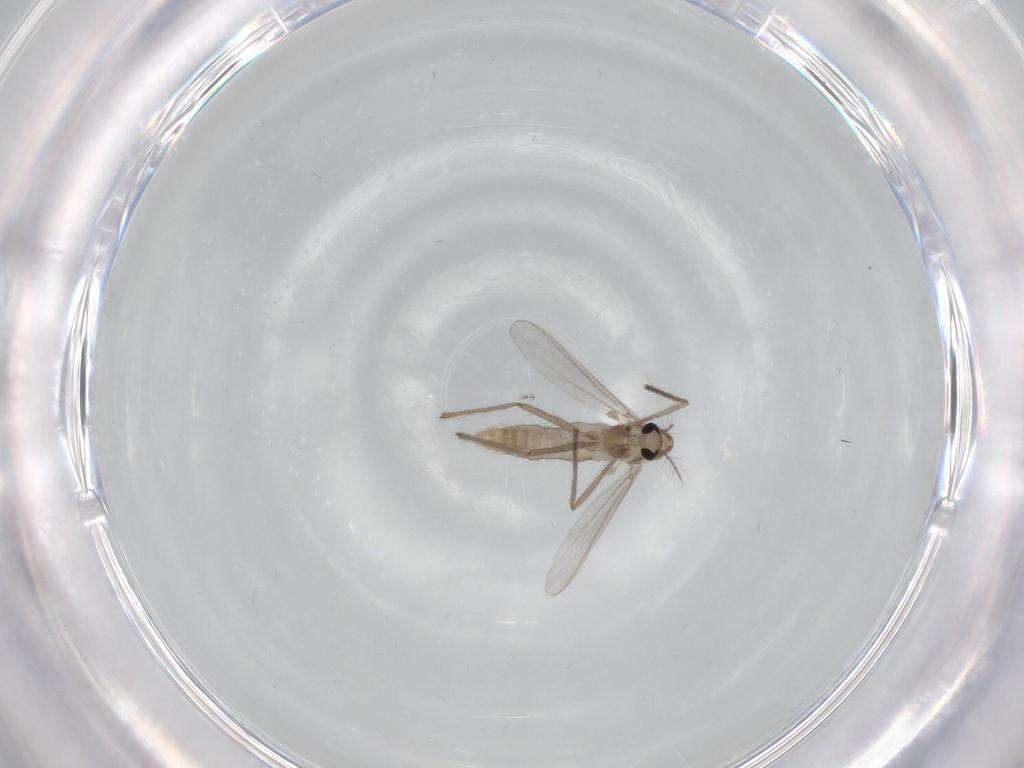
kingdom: Animalia
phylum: Arthropoda
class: Insecta
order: Diptera
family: Chironomidae
